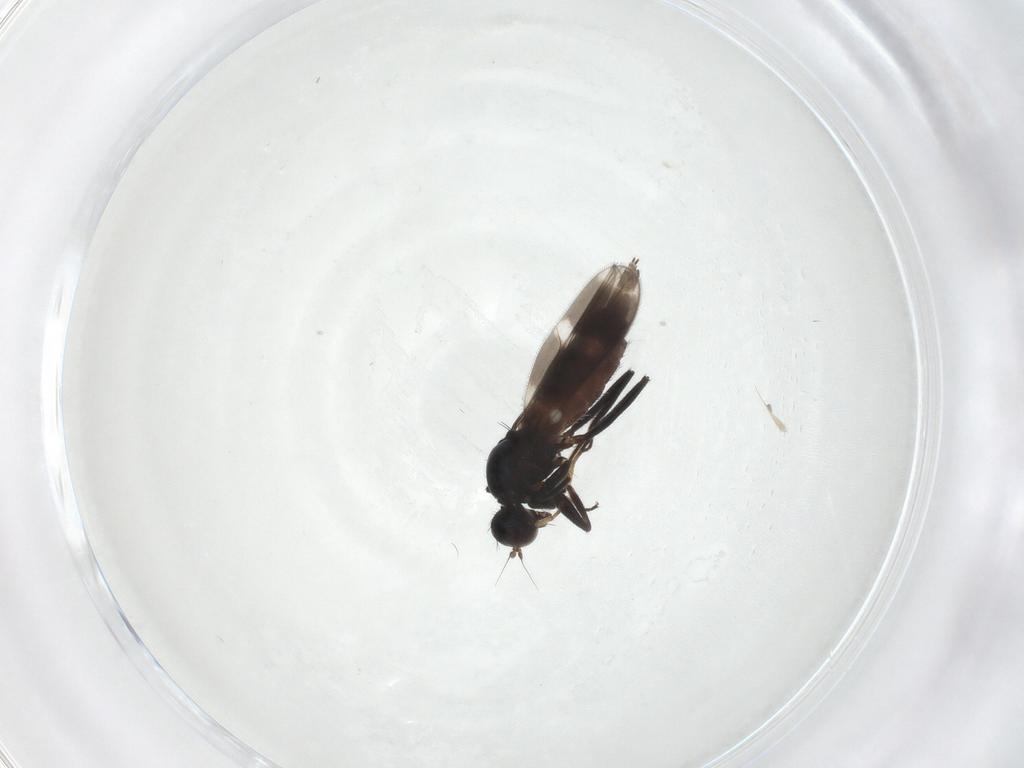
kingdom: Animalia
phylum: Arthropoda
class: Insecta
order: Diptera
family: Hybotidae
